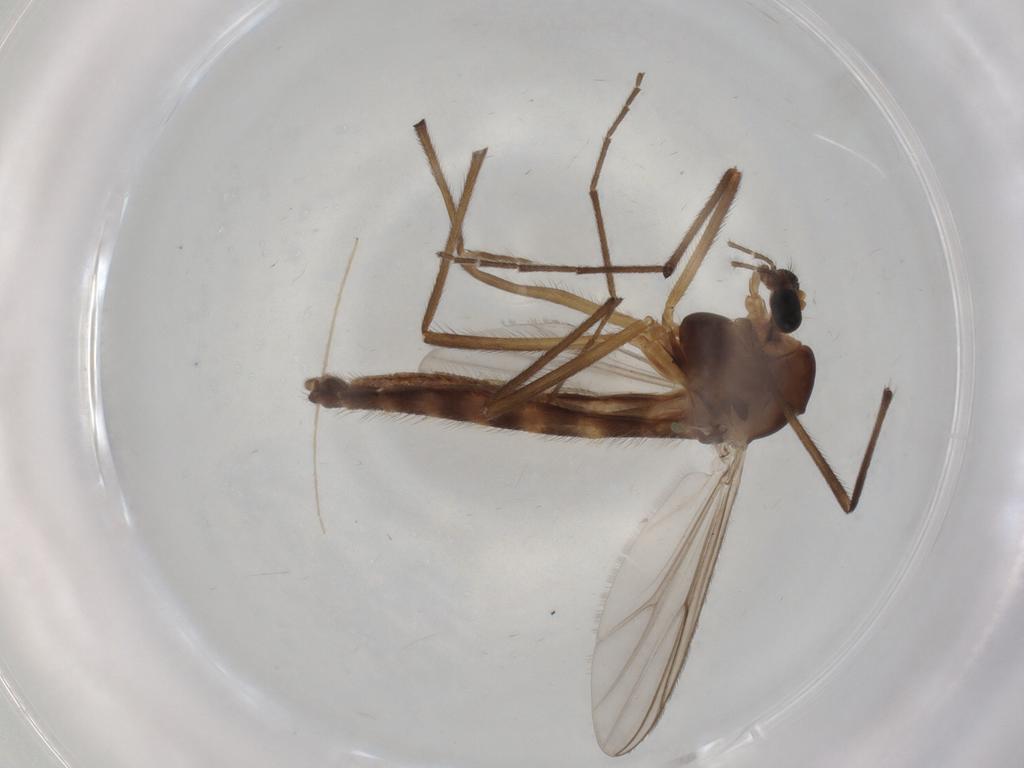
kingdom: Animalia
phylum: Arthropoda
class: Insecta
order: Diptera
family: Chironomidae
